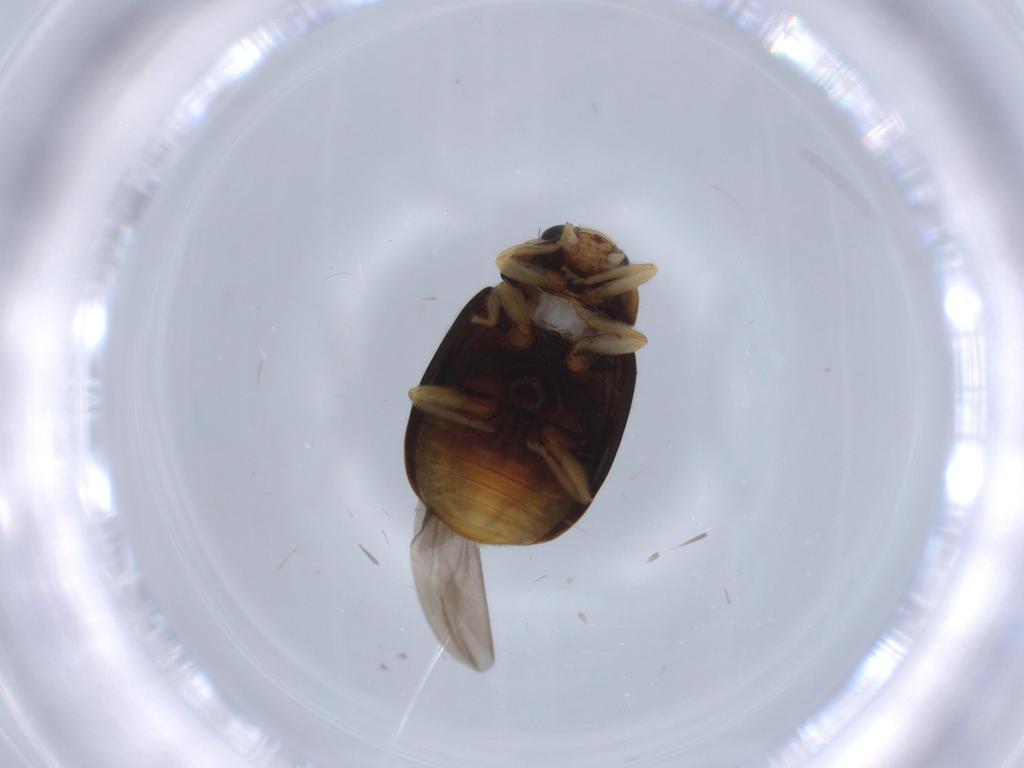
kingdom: Animalia
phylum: Arthropoda
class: Insecta
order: Coleoptera
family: Coccinellidae
